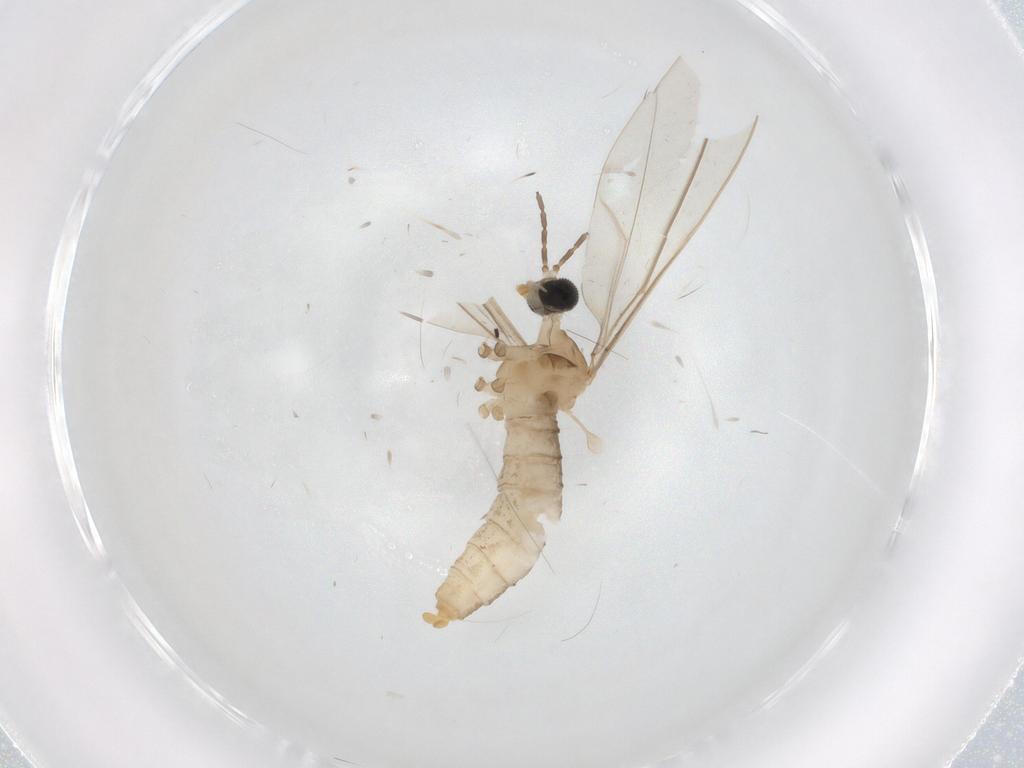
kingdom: Animalia
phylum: Arthropoda
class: Insecta
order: Diptera
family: Cecidomyiidae
